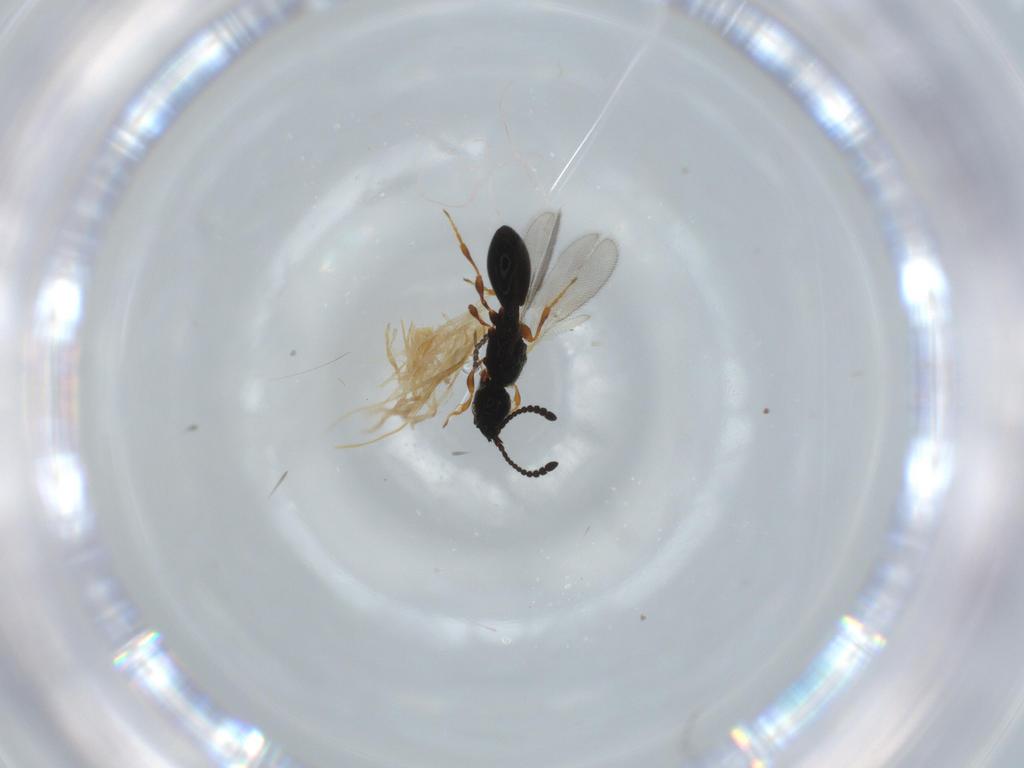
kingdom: Animalia
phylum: Arthropoda
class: Insecta
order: Hymenoptera
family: Diapriidae
